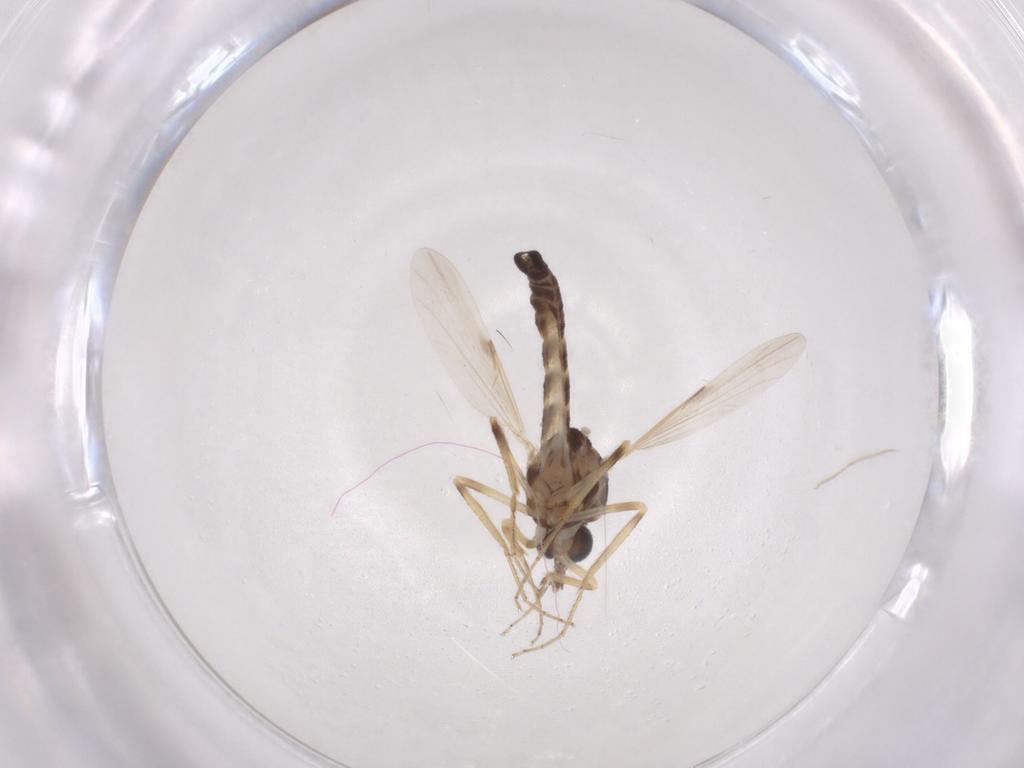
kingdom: Animalia
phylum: Arthropoda
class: Insecta
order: Diptera
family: Ceratopogonidae
